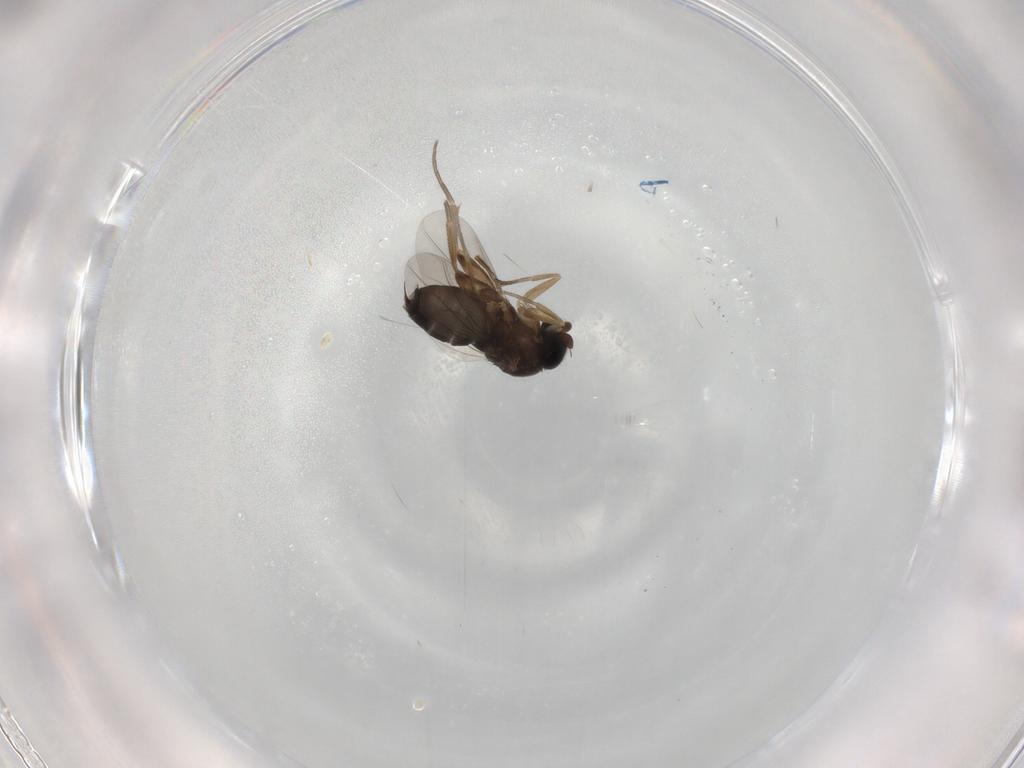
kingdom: Animalia
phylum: Arthropoda
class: Insecta
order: Diptera
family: Phoridae
